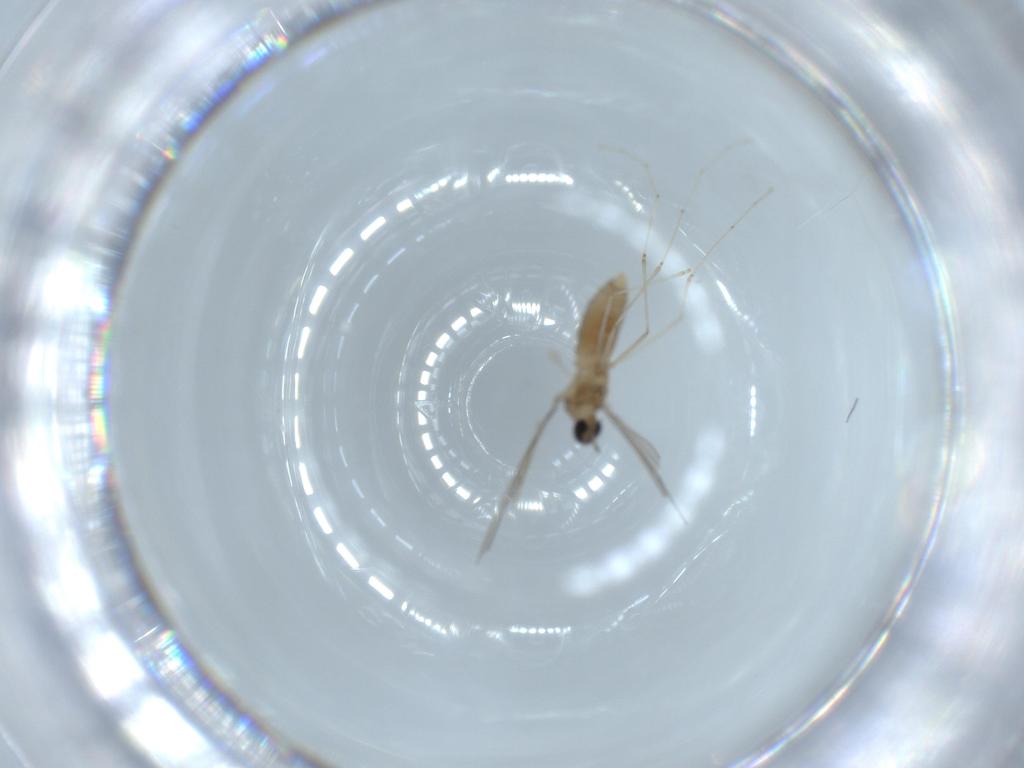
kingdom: Animalia
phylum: Arthropoda
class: Insecta
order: Diptera
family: Cecidomyiidae
